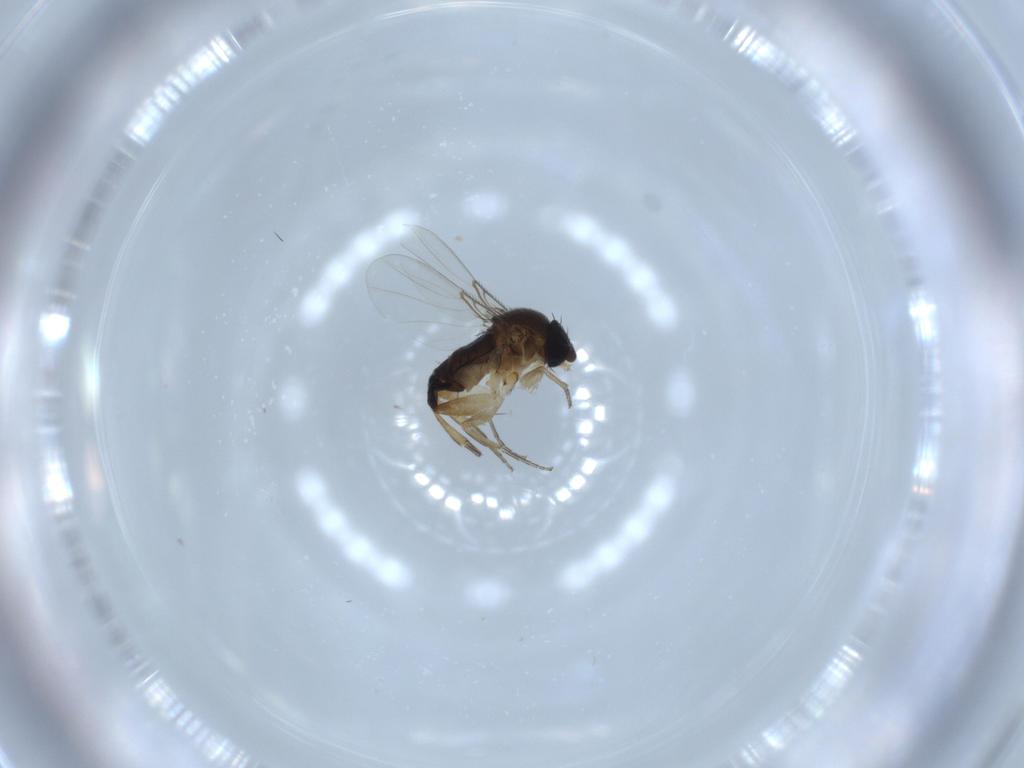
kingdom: Animalia
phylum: Arthropoda
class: Insecta
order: Diptera
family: Phoridae
